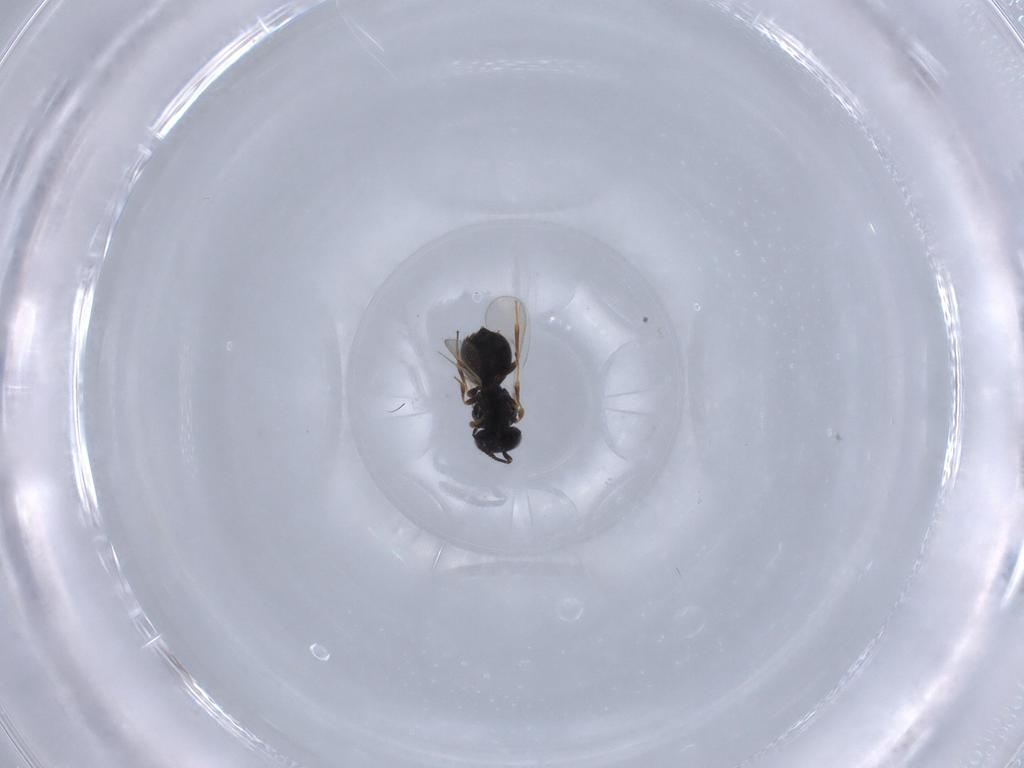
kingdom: Animalia
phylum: Arthropoda
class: Insecta
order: Hymenoptera
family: Scelionidae
